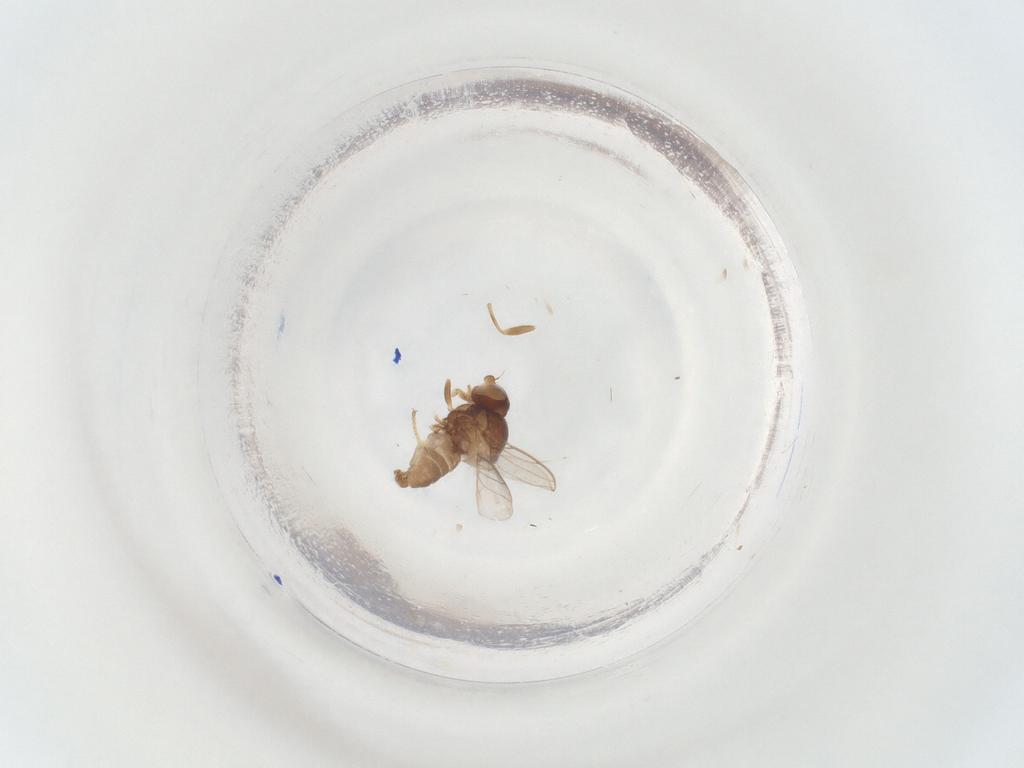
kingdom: Animalia
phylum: Arthropoda
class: Insecta
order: Diptera
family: Chloropidae
